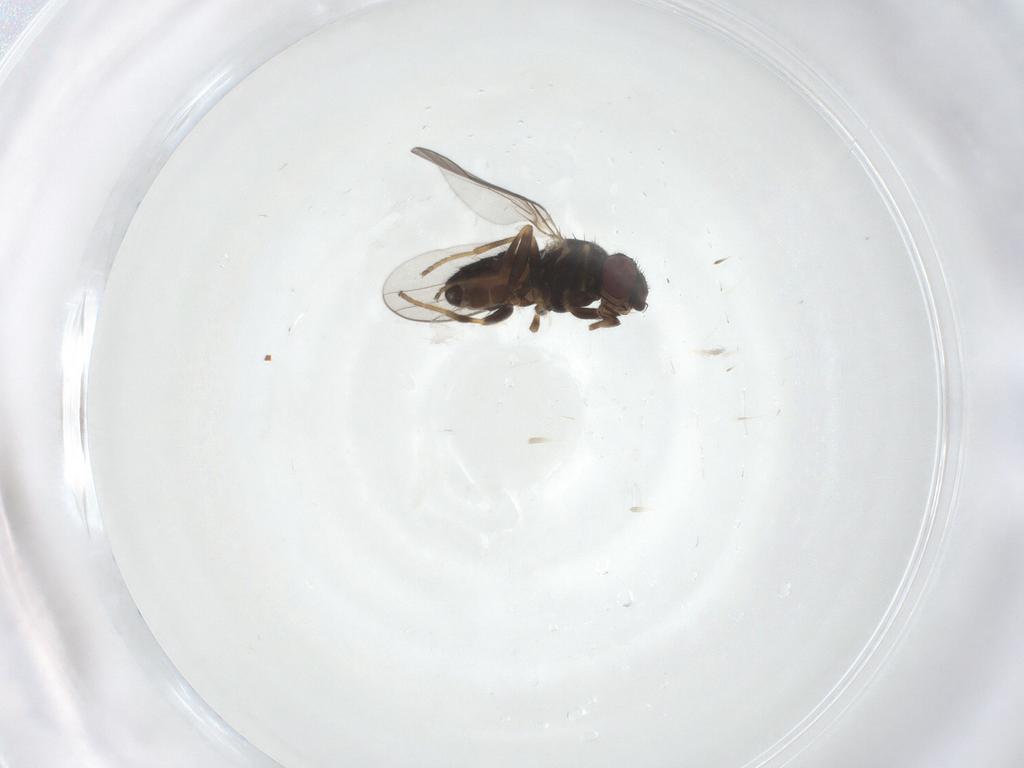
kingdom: Animalia
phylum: Arthropoda
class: Insecta
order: Diptera
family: Chloropidae
